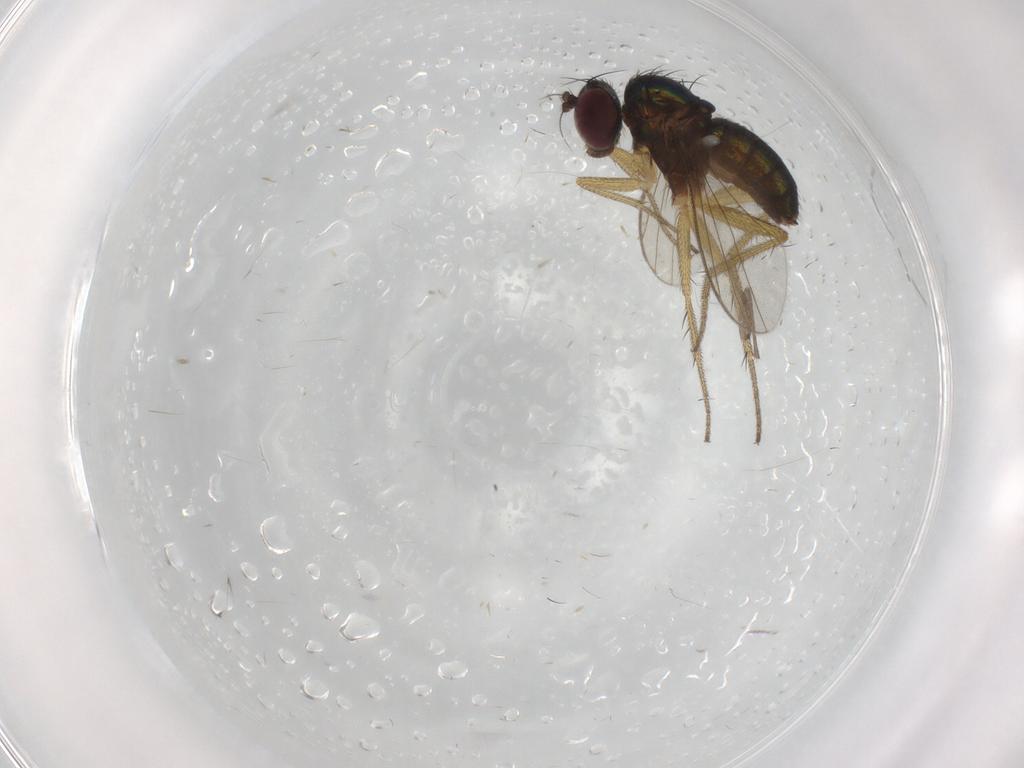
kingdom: Animalia
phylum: Arthropoda
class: Insecta
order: Diptera
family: Dolichopodidae
